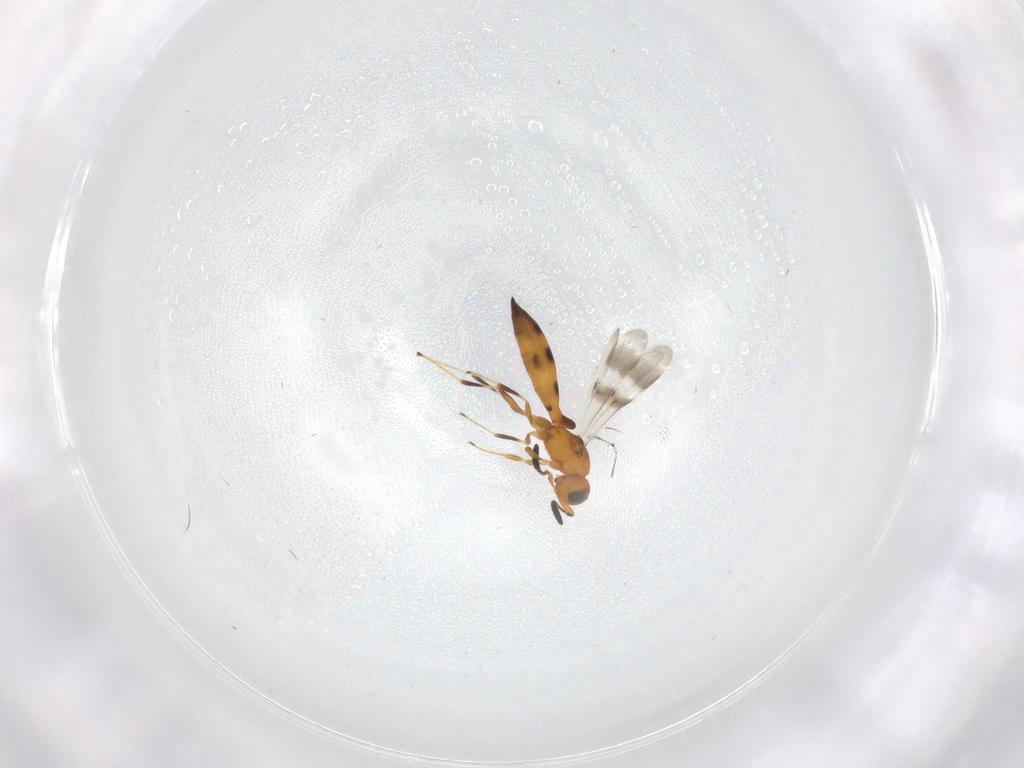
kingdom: Animalia
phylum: Arthropoda
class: Insecta
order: Hymenoptera
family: Scelionidae
